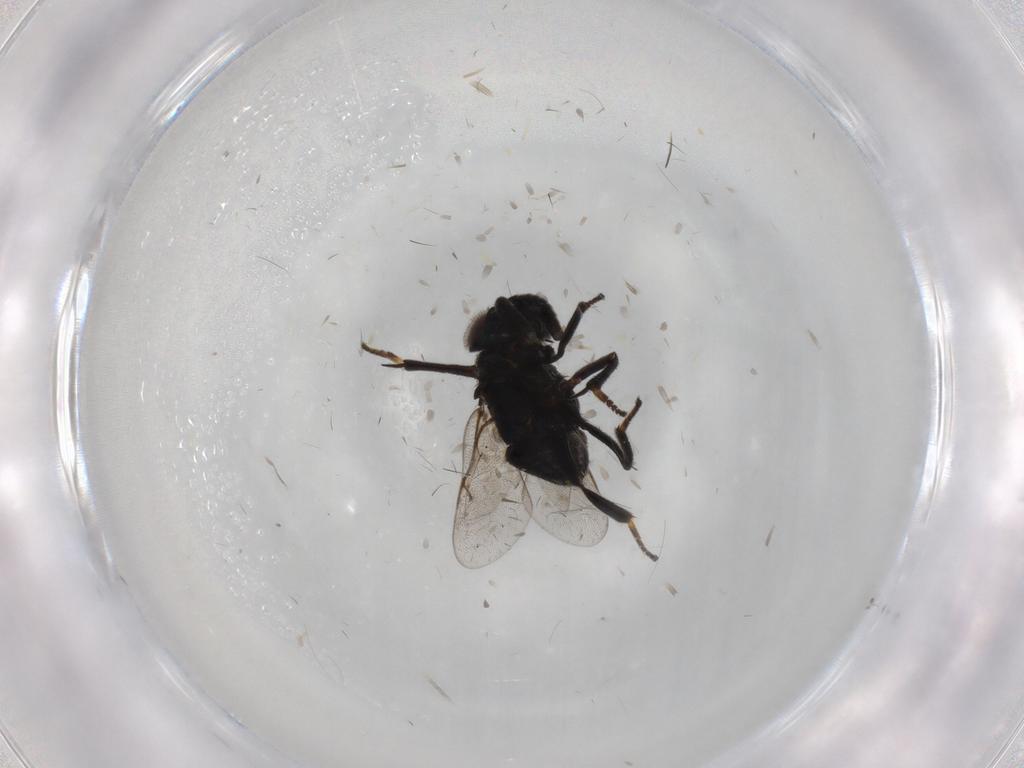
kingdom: Animalia
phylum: Arthropoda
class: Insecta
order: Hymenoptera
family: Encyrtidae
